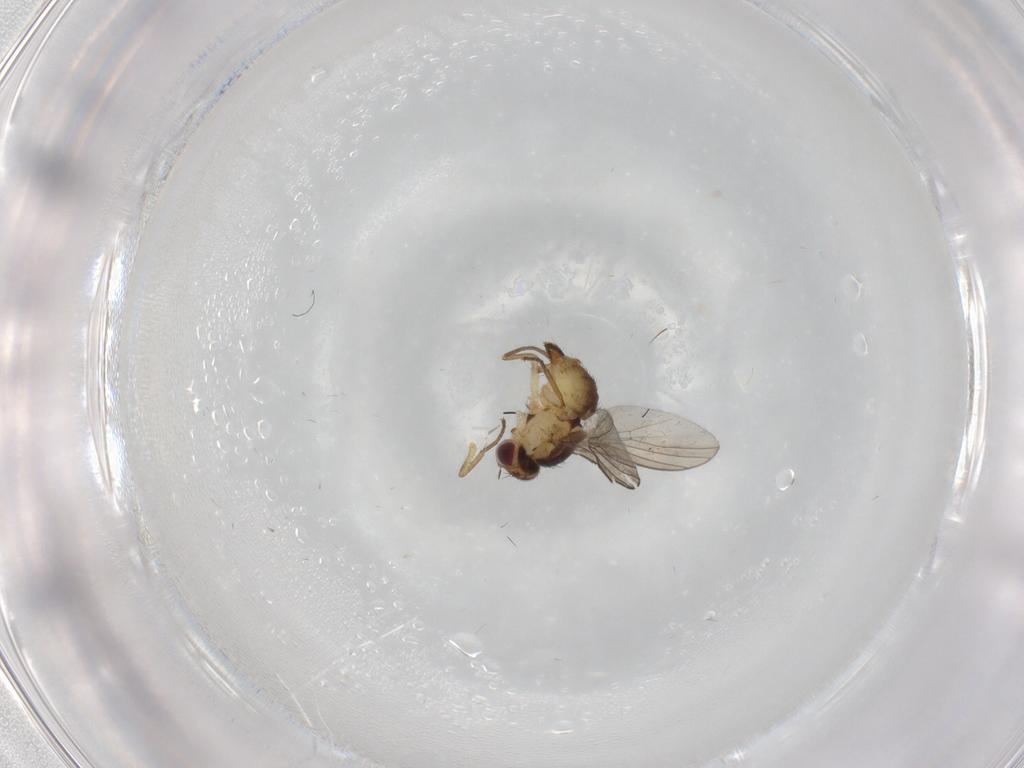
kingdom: Animalia
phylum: Arthropoda
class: Insecta
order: Diptera
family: Agromyzidae
